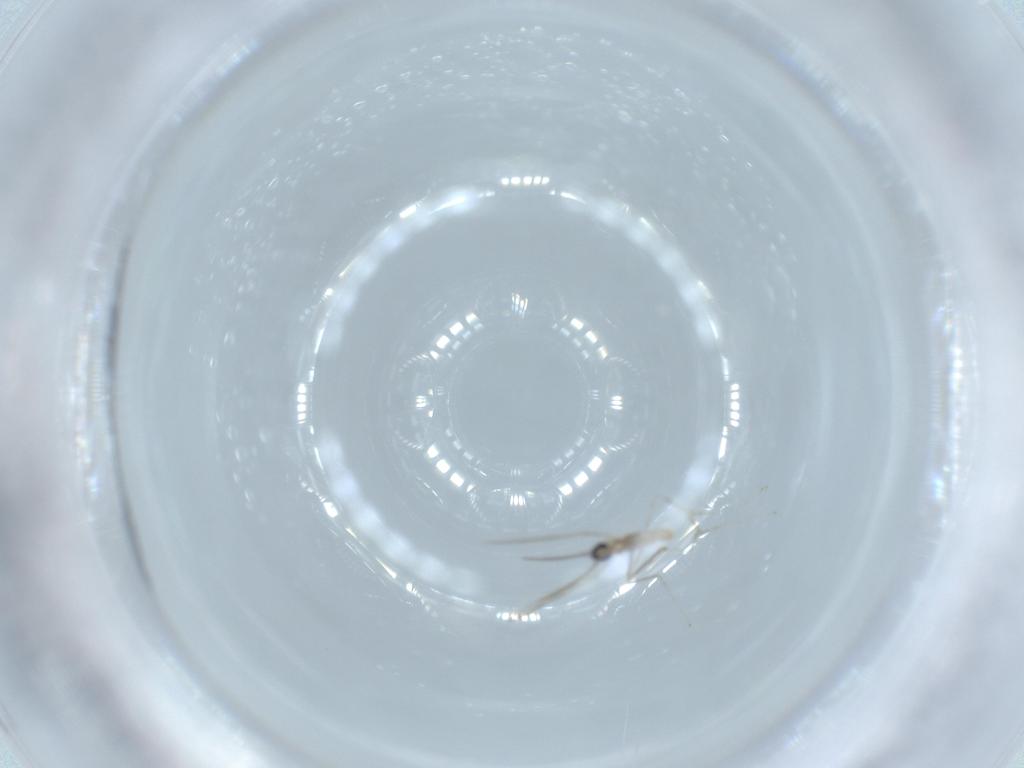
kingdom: Animalia
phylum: Arthropoda
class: Insecta
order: Diptera
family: Cecidomyiidae
